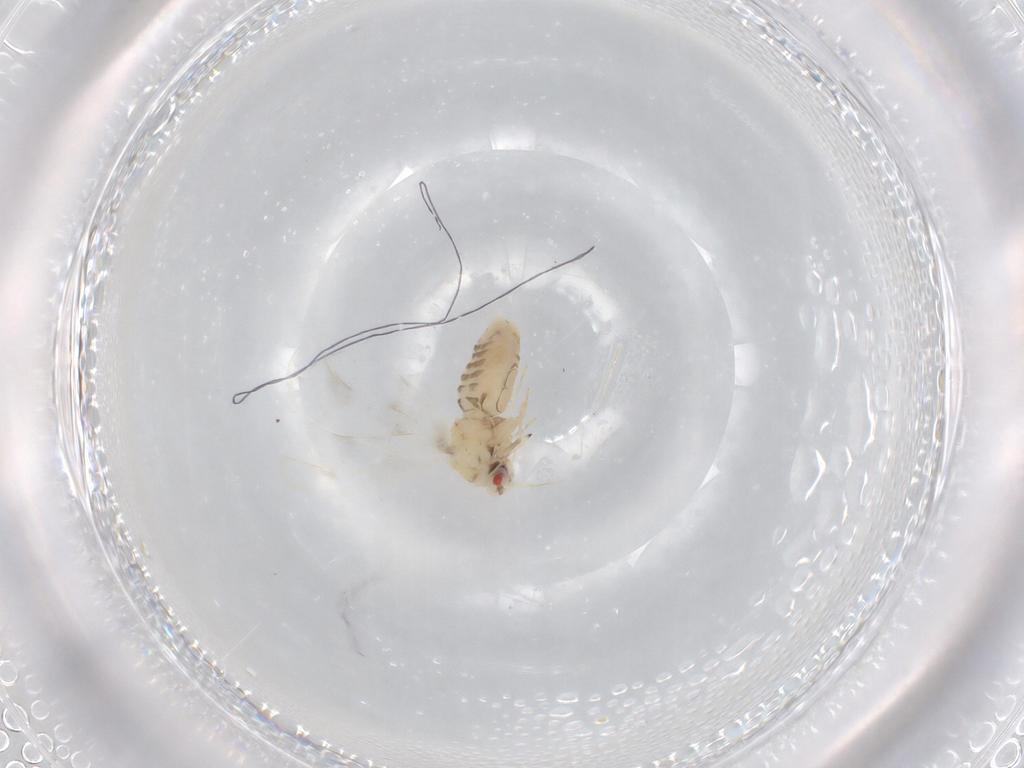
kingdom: Animalia
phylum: Arthropoda
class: Insecta
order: Hemiptera
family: Aleyrodidae
